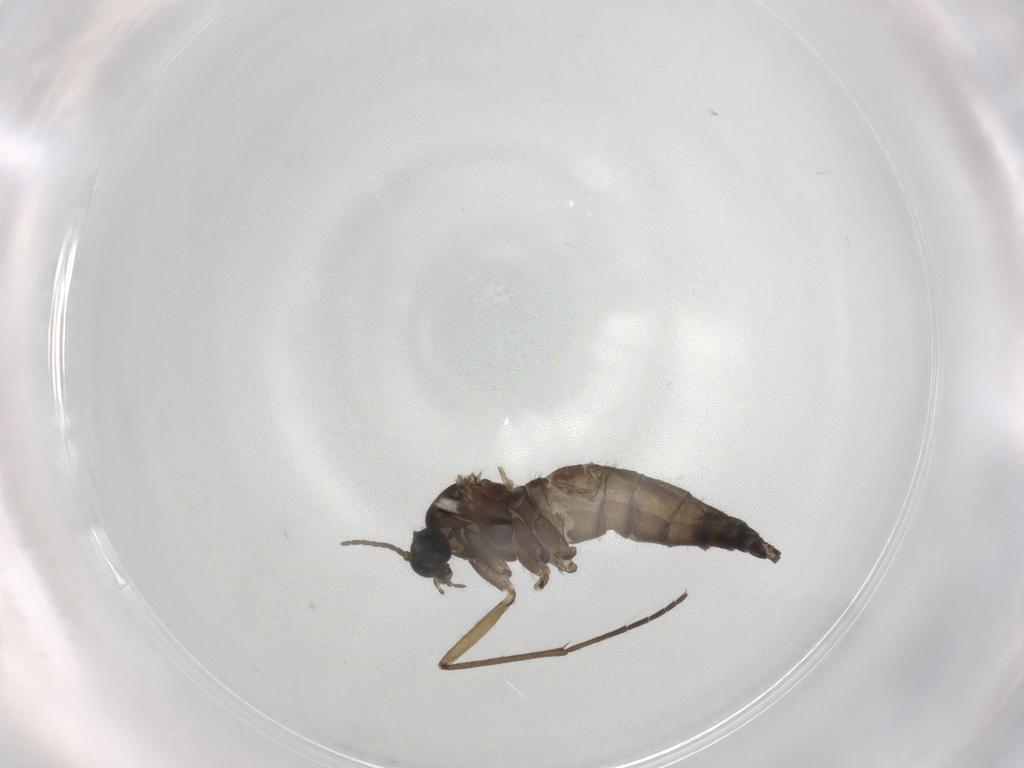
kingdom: Animalia
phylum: Arthropoda
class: Insecta
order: Diptera
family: Sciaridae
